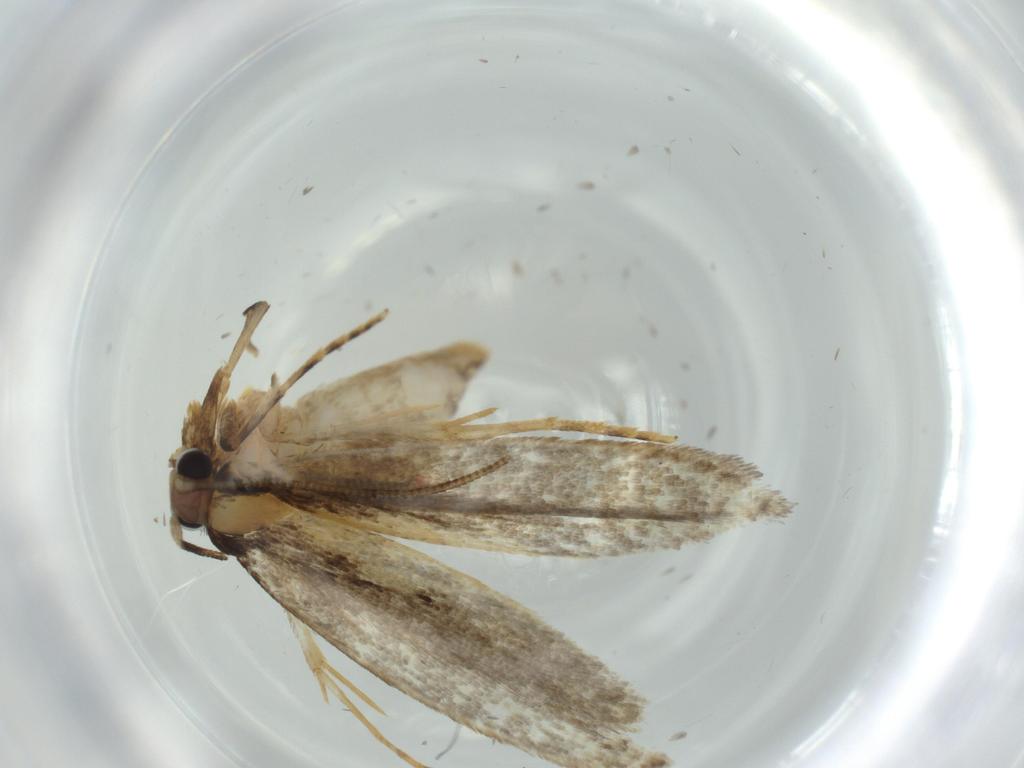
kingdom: Animalia
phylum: Arthropoda
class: Insecta
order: Lepidoptera
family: Tineidae
